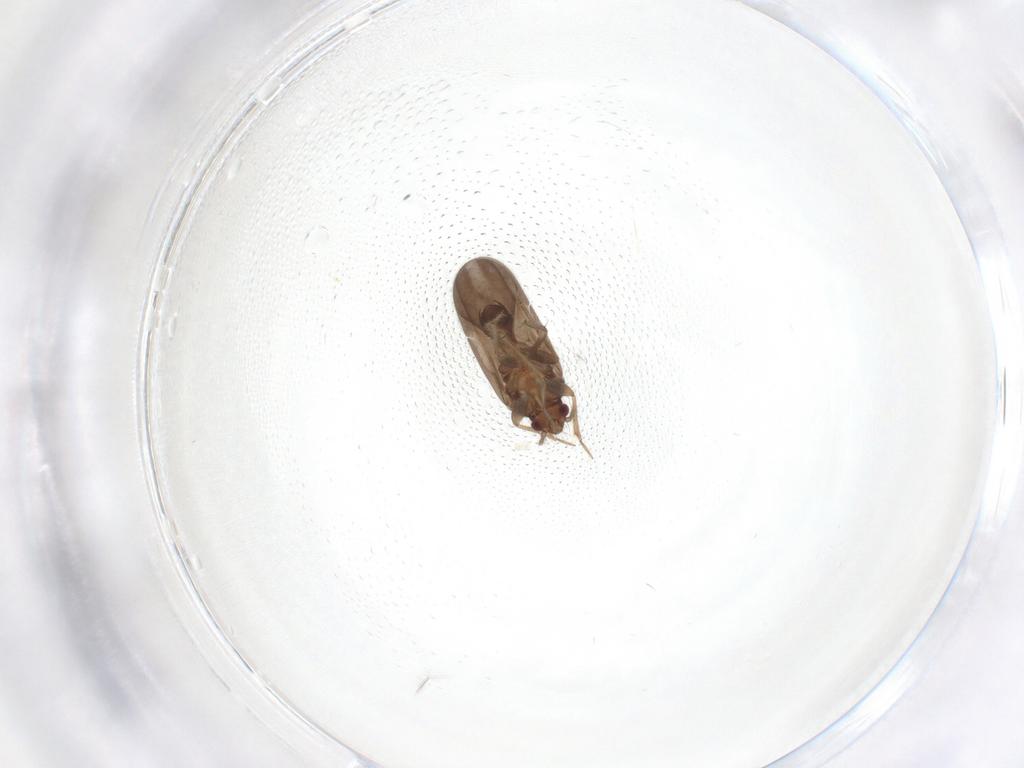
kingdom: Animalia
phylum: Arthropoda
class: Insecta
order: Hemiptera
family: Ceratocombidae
